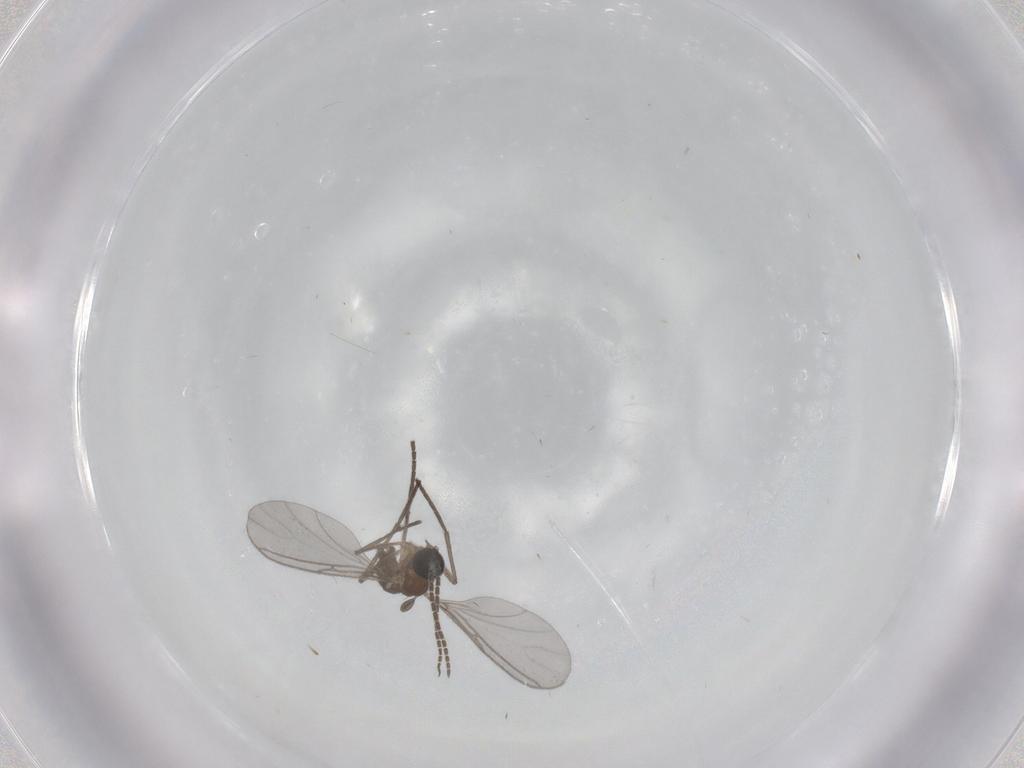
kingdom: Animalia
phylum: Arthropoda
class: Insecta
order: Diptera
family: Sciaridae
